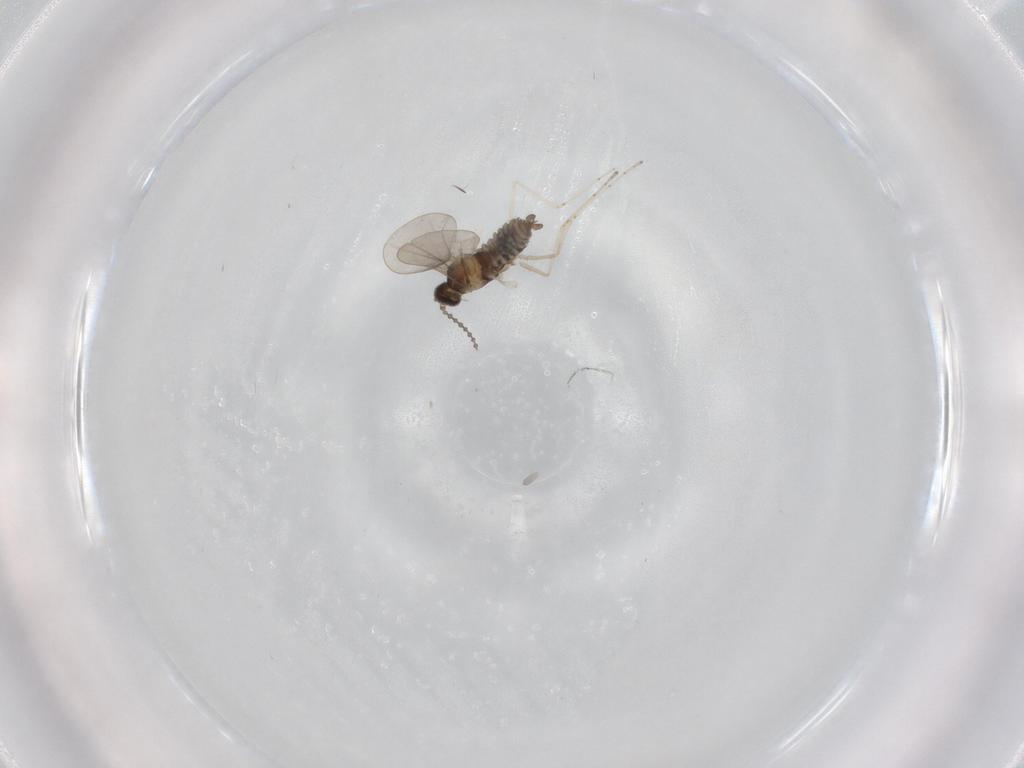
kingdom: Animalia
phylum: Arthropoda
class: Insecta
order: Diptera
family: Cecidomyiidae
